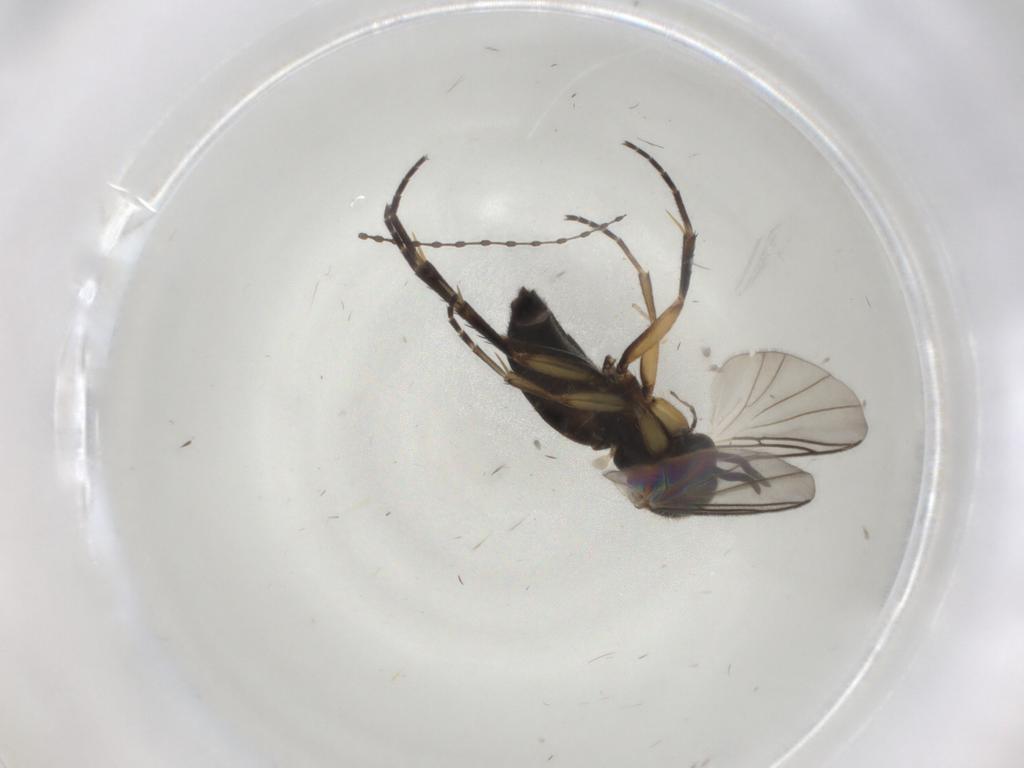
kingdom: Animalia
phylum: Arthropoda
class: Insecta
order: Diptera
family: Mycetophilidae
